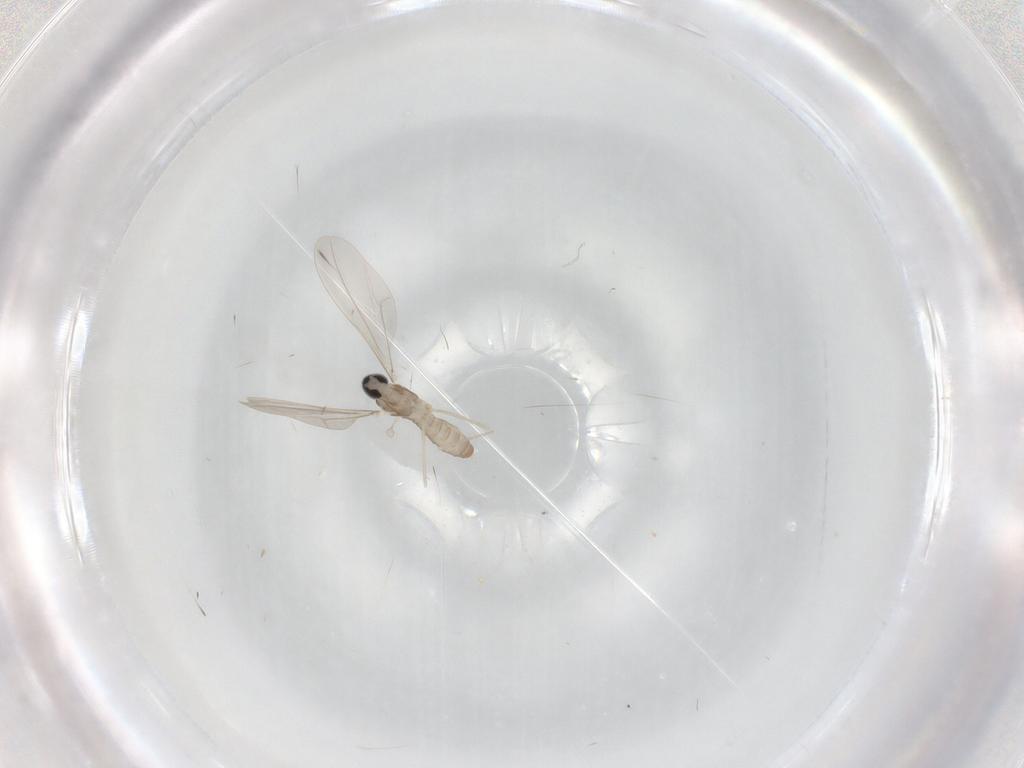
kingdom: Animalia
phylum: Arthropoda
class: Insecta
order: Diptera
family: Cecidomyiidae
